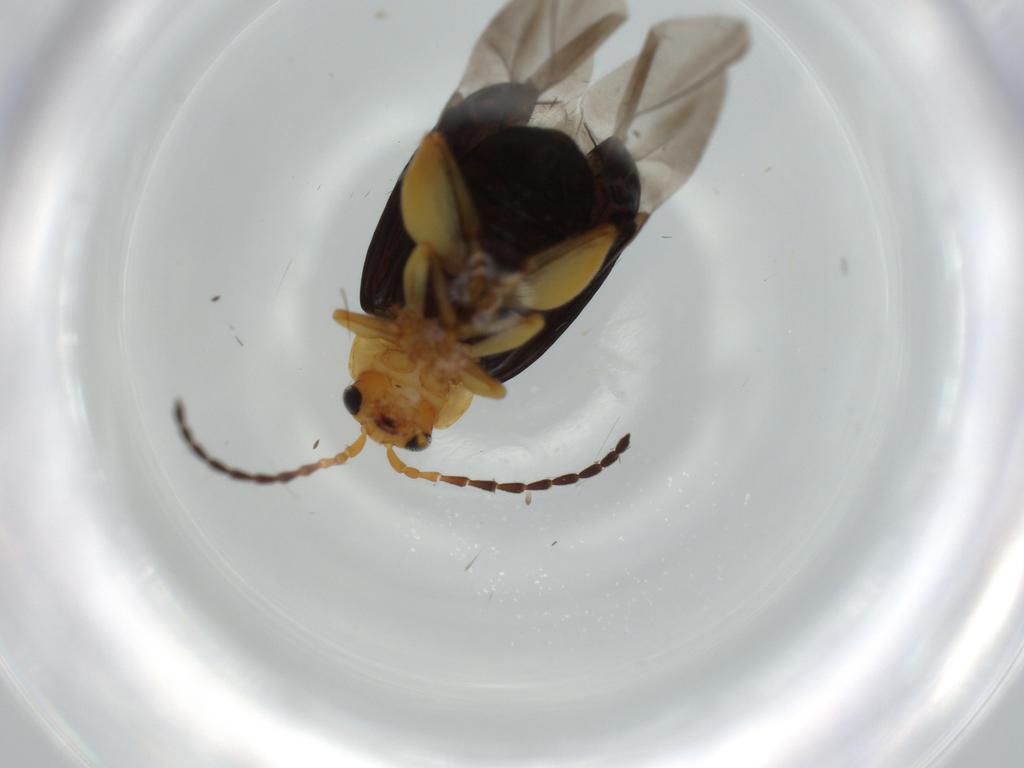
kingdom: Animalia
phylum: Arthropoda
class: Insecta
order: Coleoptera
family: Chrysomelidae
